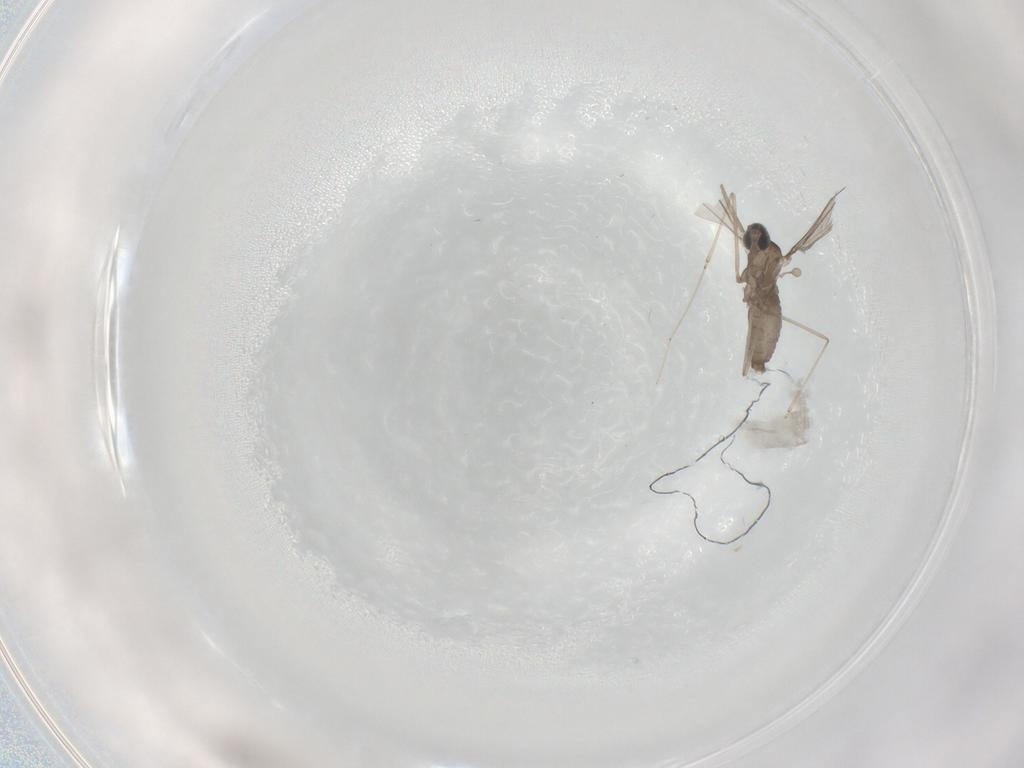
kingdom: Animalia
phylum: Arthropoda
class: Insecta
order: Diptera
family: Cecidomyiidae
